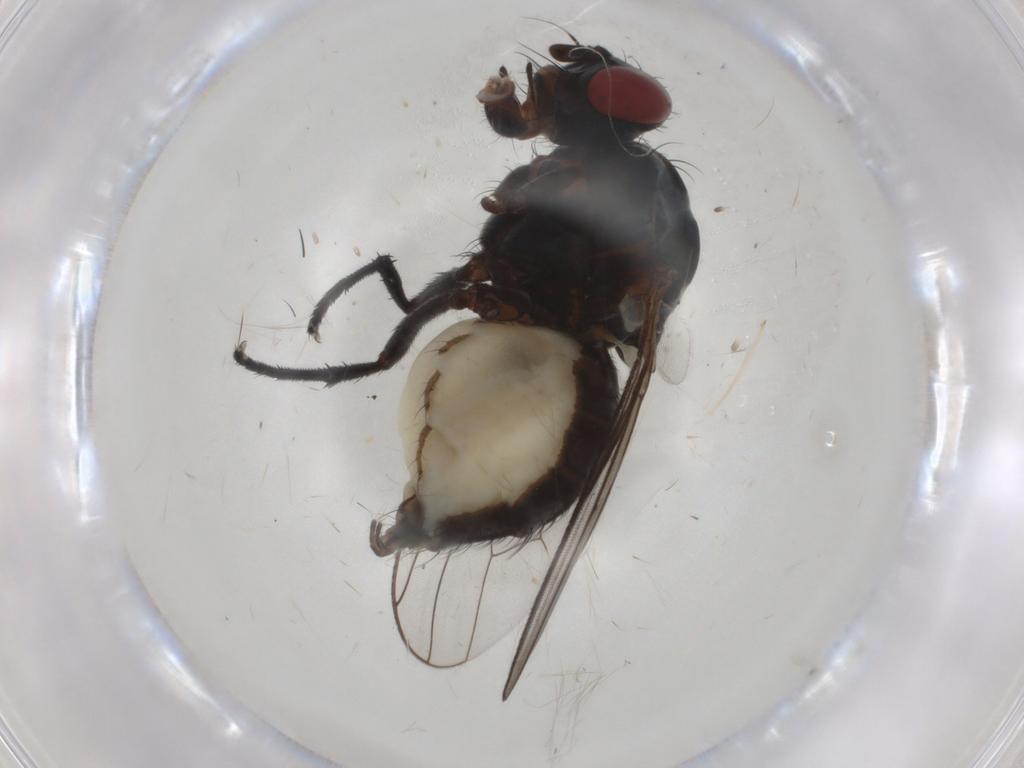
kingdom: Animalia
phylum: Arthropoda
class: Insecta
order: Diptera
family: Glossinidae
